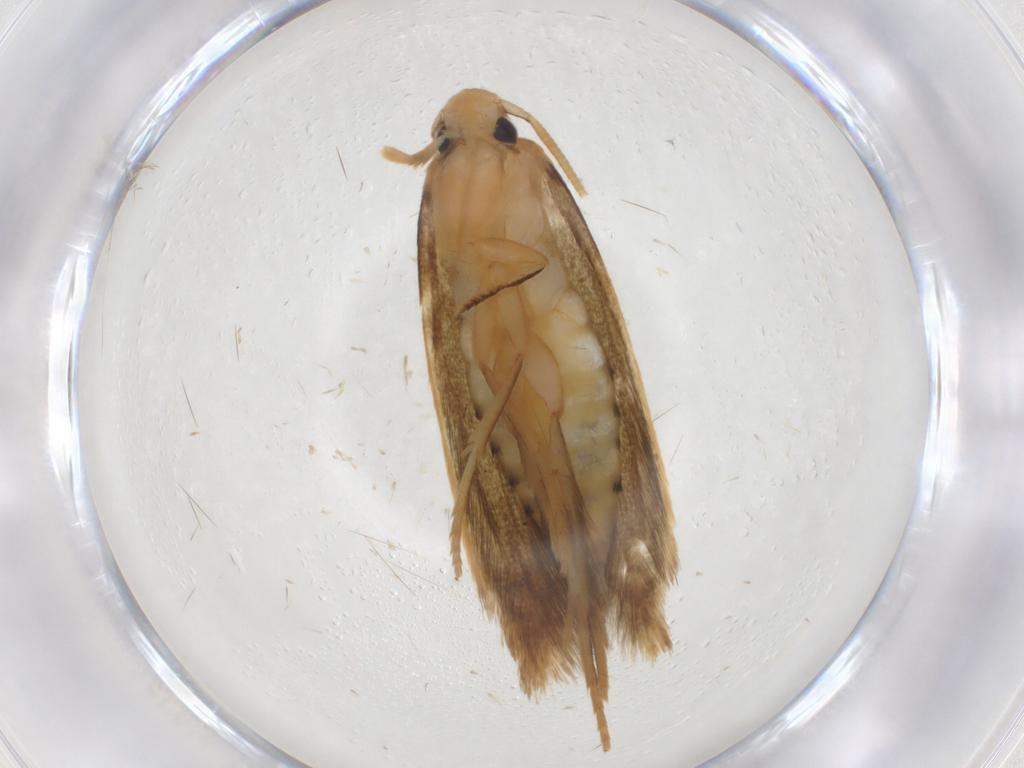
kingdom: Animalia
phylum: Arthropoda
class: Insecta
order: Lepidoptera
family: Tineidae
